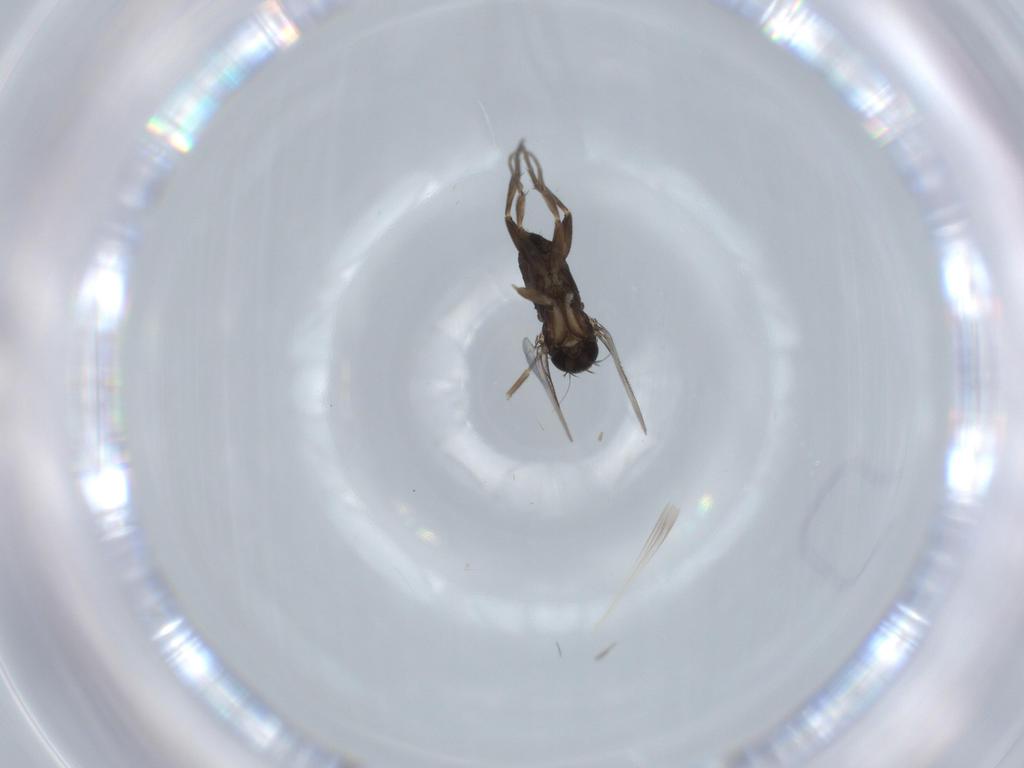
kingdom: Animalia
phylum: Arthropoda
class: Insecta
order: Diptera
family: Phoridae
